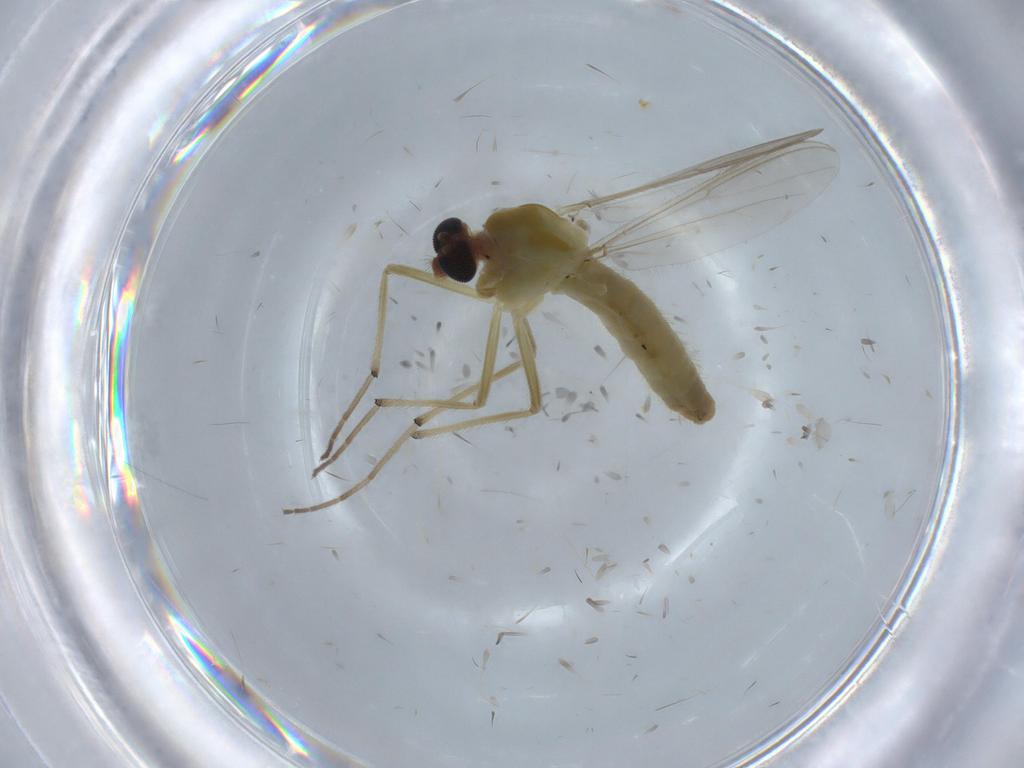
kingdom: Animalia
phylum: Arthropoda
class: Insecta
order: Diptera
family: Chironomidae
